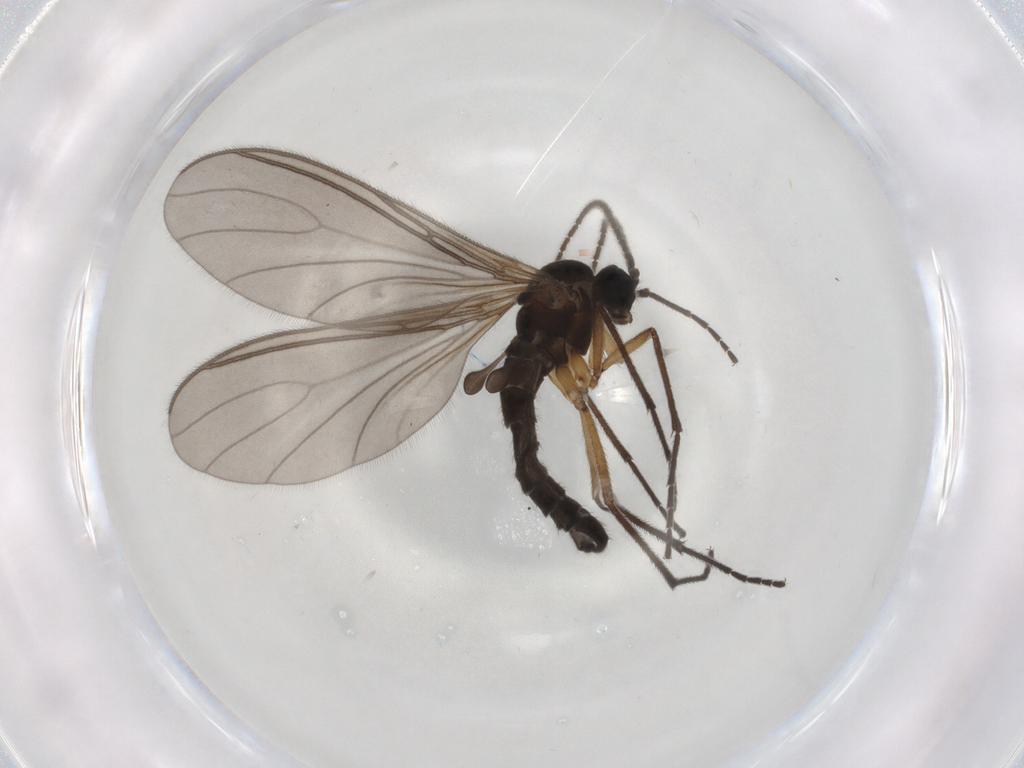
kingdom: Animalia
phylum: Arthropoda
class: Insecta
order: Diptera
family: Sciaridae
